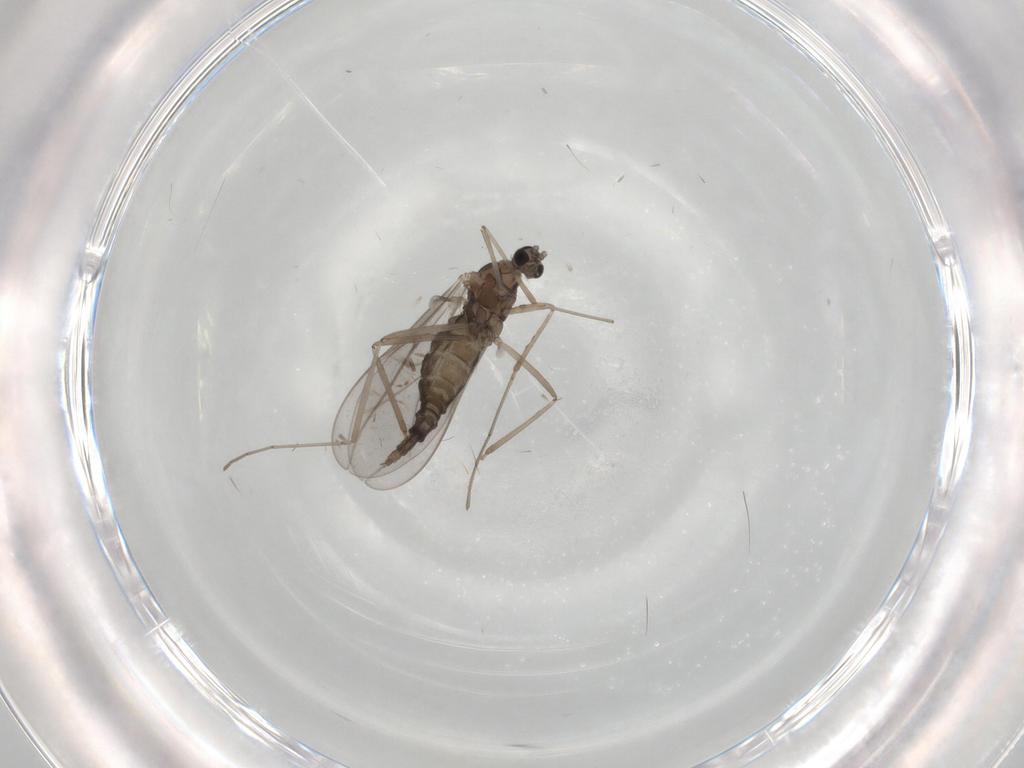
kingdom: Animalia
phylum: Arthropoda
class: Insecta
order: Diptera
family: Cecidomyiidae
